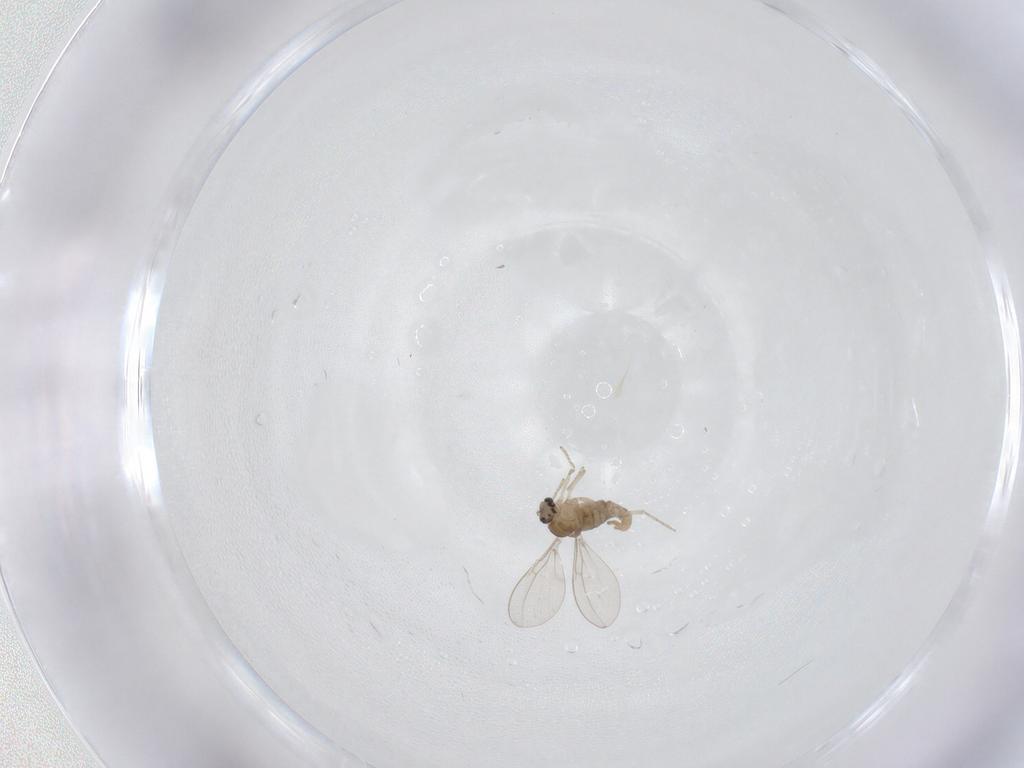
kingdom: Animalia
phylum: Arthropoda
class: Insecta
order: Diptera
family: Cecidomyiidae
